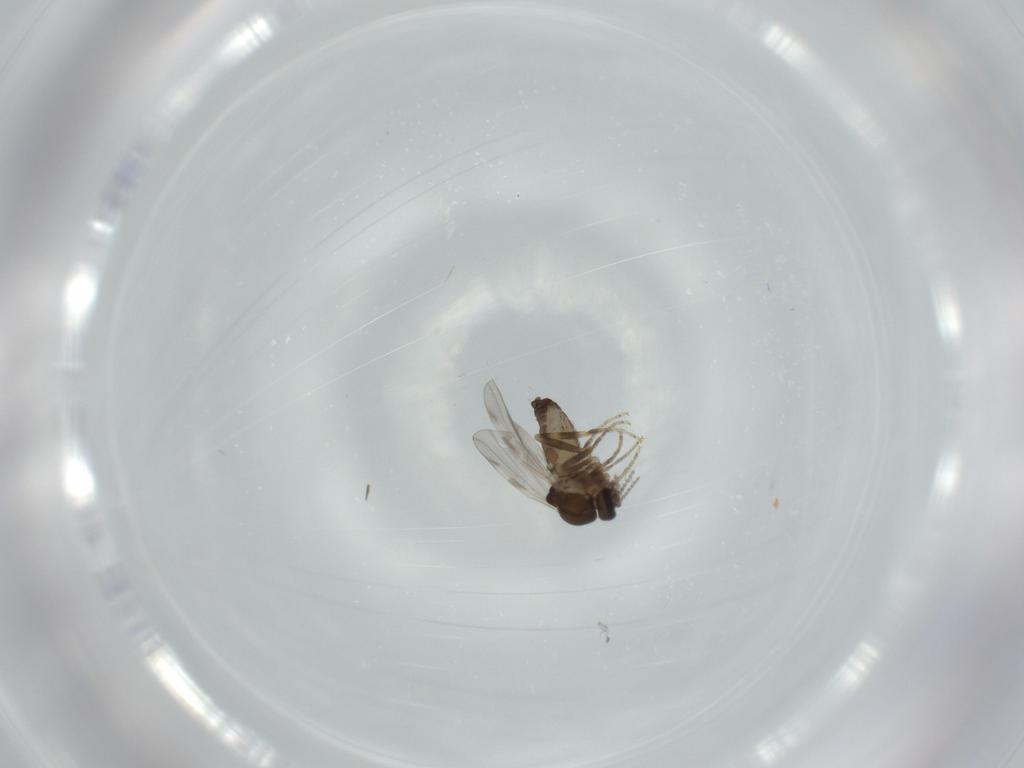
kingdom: Animalia
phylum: Arthropoda
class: Insecta
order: Diptera
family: Ceratopogonidae
